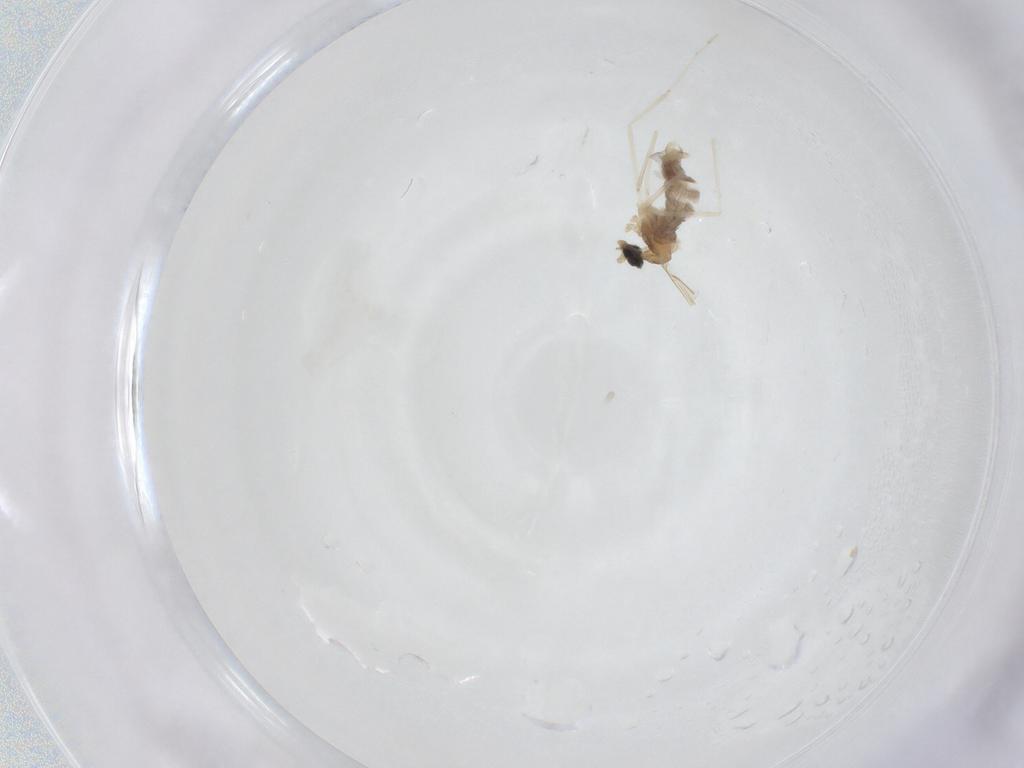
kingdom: Animalia
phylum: Arthropoda
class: Insecta
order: Diptera
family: Cecidomyiidae
